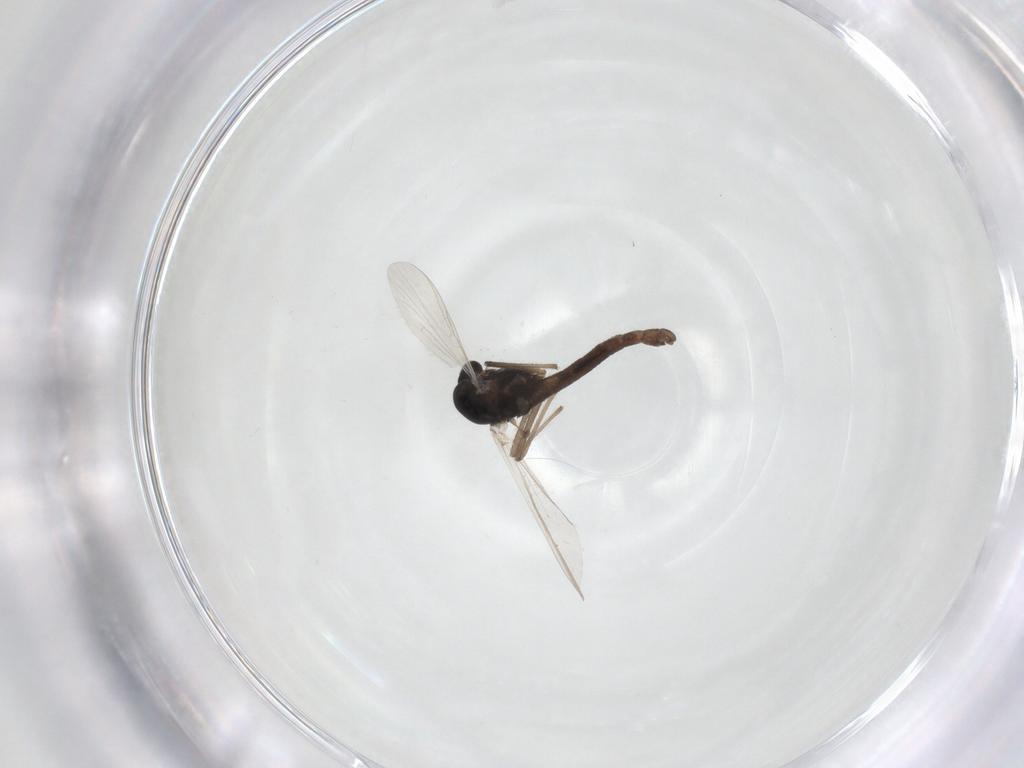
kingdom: Animalia
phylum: Arthropoda
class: Insecta
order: Diptera
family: Chironomidae
